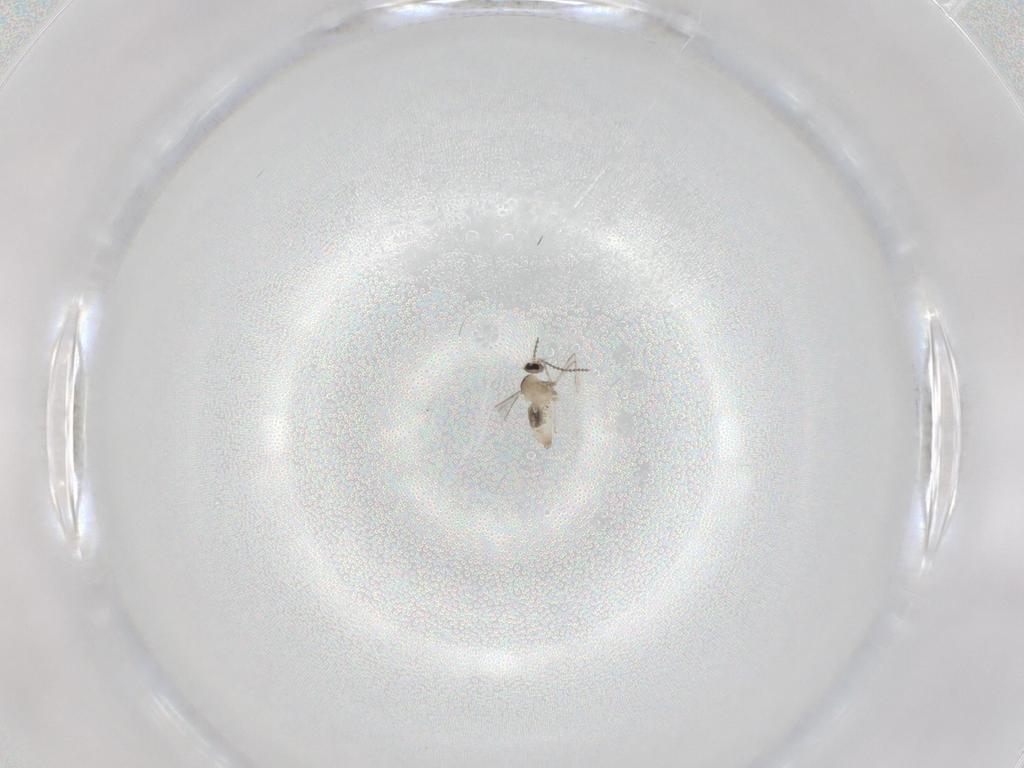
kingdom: Animalia
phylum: Arthropoda
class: Insecta
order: Diptera
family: Cecidomyiidae
